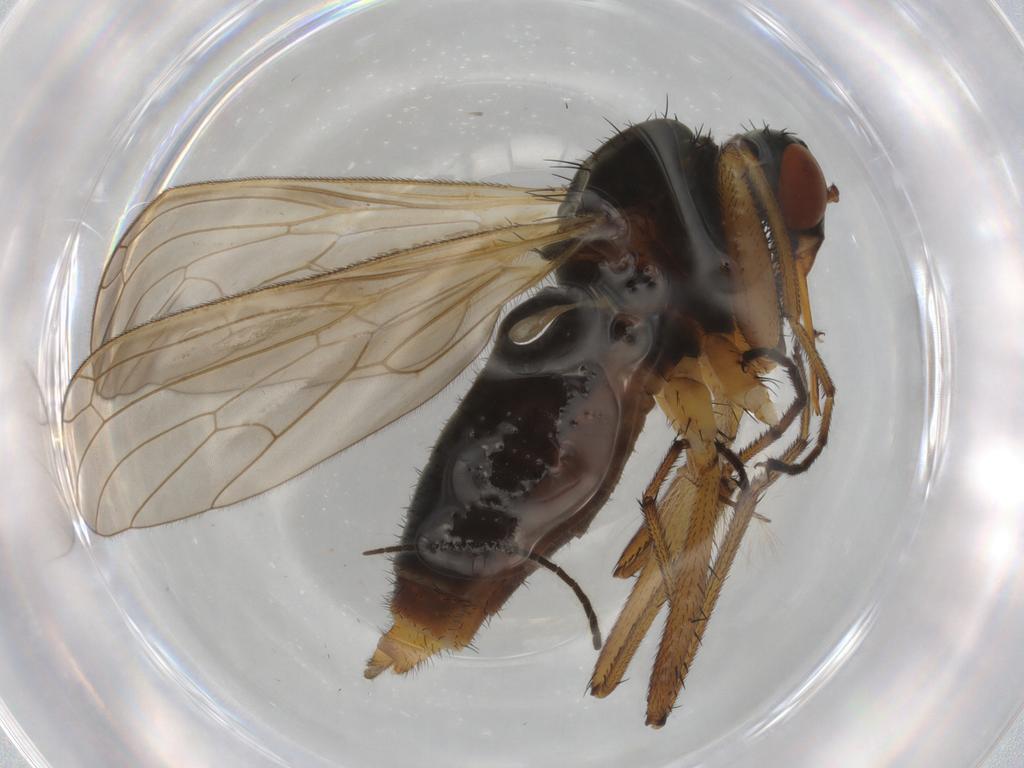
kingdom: Animalia
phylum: Arthropoda
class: Insecta
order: Diptera
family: Empididae
